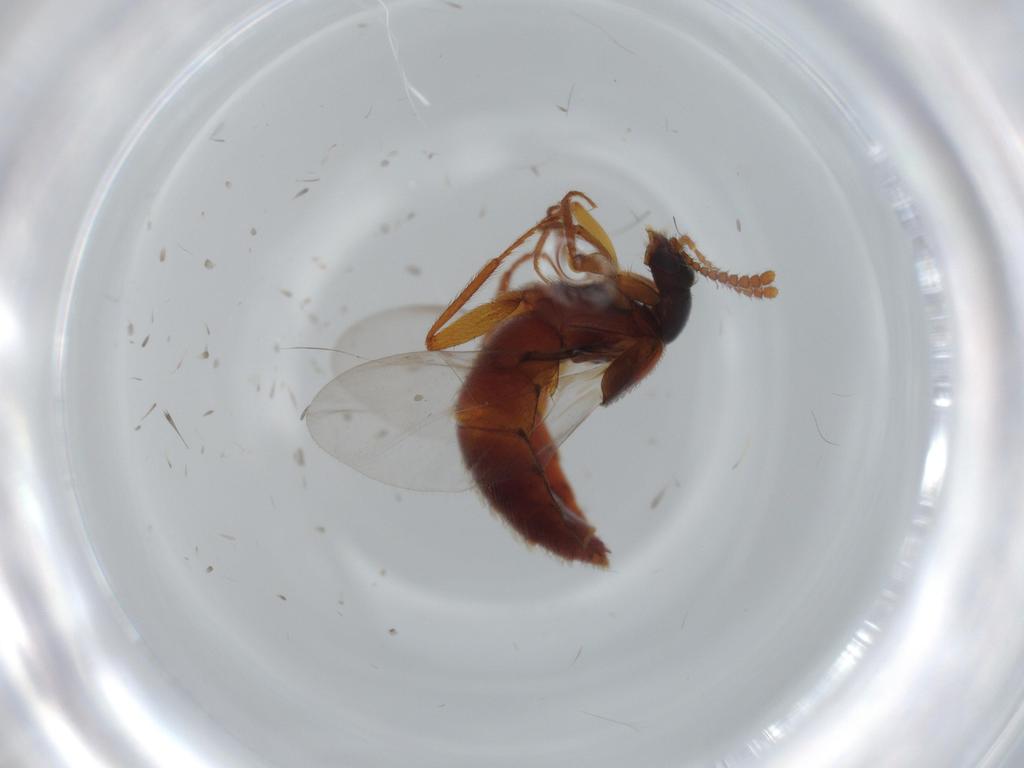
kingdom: Animalia
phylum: Arthropoda
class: Insecta
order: Coleoptera
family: Staphylinidae
